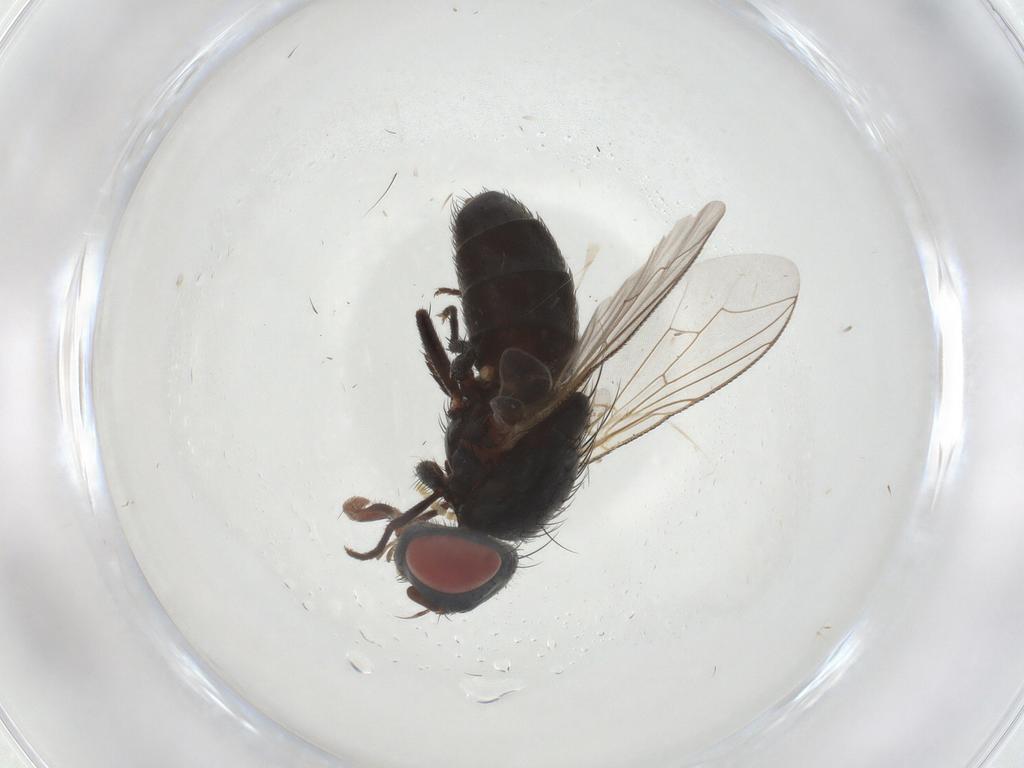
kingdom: Animalia
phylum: Arthropoda
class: Insecta
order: Diptera
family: Sarcophagidae
